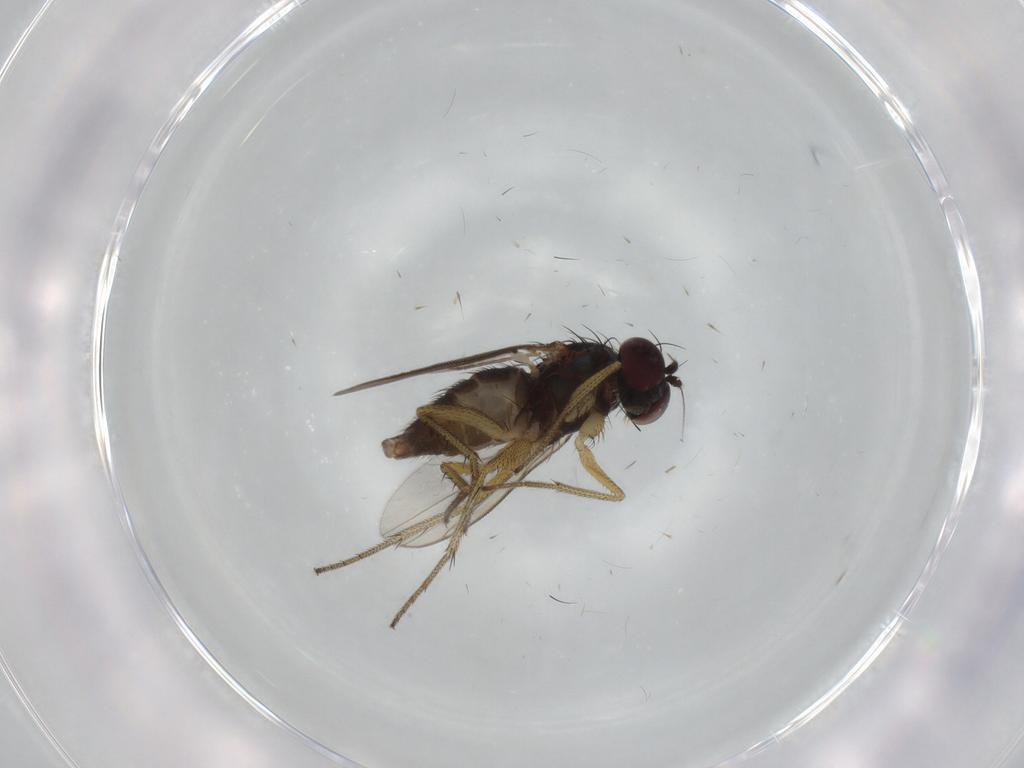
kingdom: Animalia
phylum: Arthropoda
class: Insecta
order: Diptera
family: Dolichopodidae
